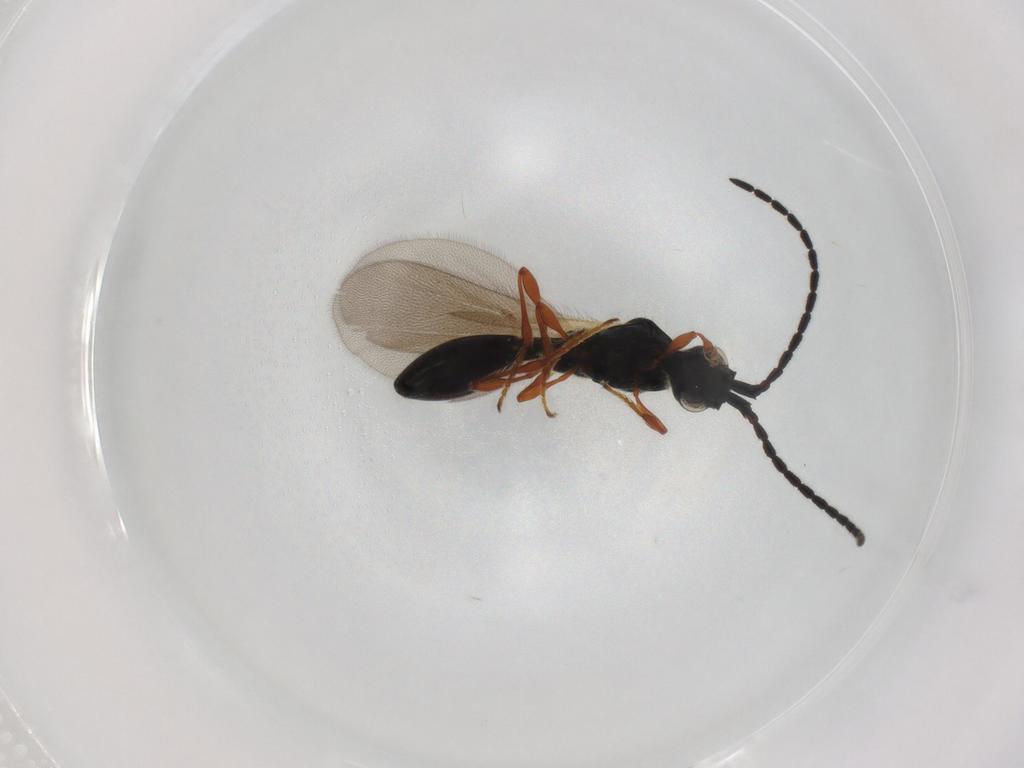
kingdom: Animalia
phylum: Arthropoda
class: Insecta
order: Hymenoptera
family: Diapriidae
